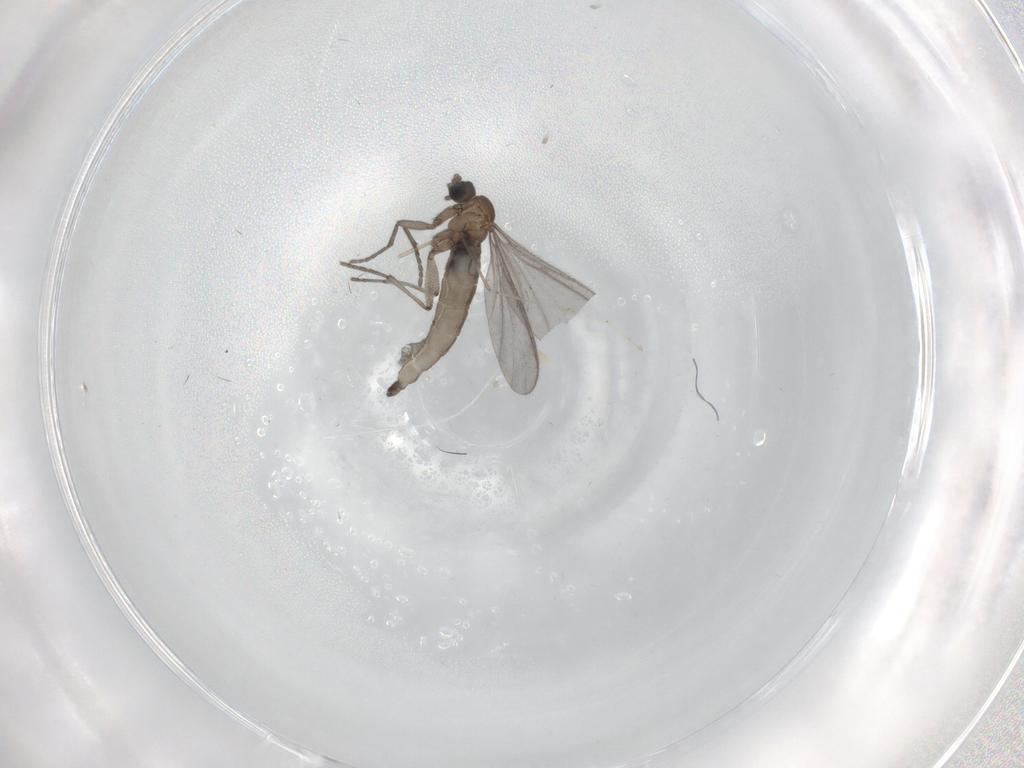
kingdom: Animalia
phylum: Arthropoda
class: Insecta
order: Diptera
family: Sciaridae
